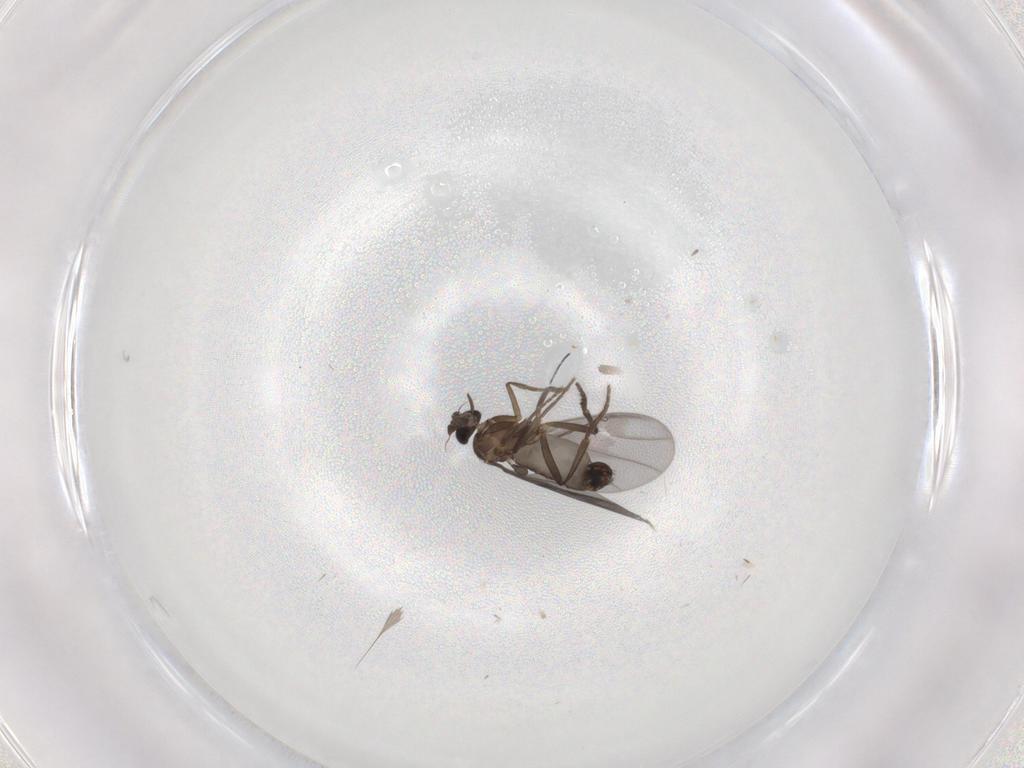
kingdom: Animalia
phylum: Arthropoda
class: Insecta
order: Diptera
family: Phoridae
